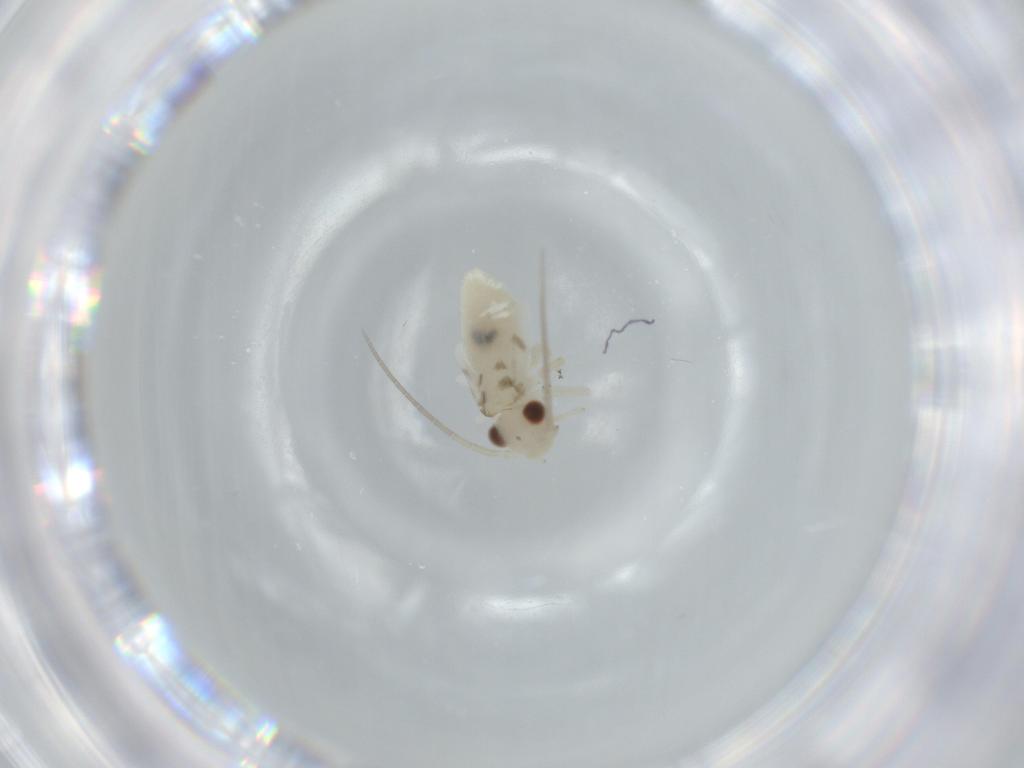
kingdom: Animalia
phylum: Arthropoda
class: Insecta
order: Psocodea
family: Caeciliusidae
